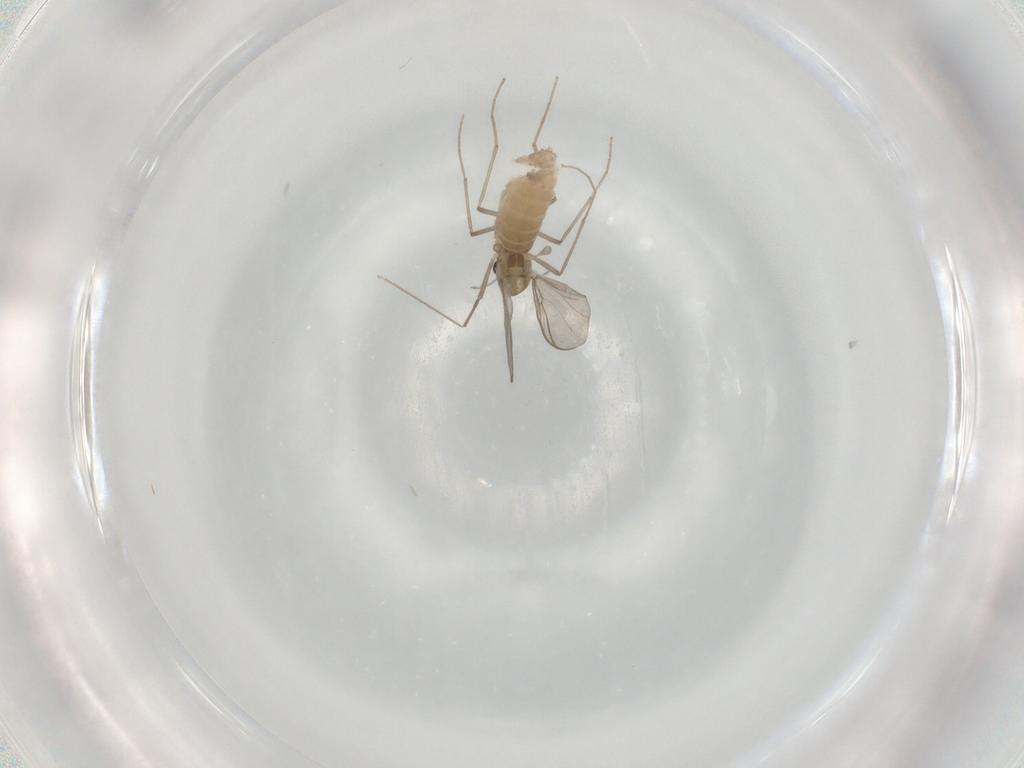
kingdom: Animalia
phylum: Arthropoda
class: Insecta
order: Diptera
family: Chironomidae
